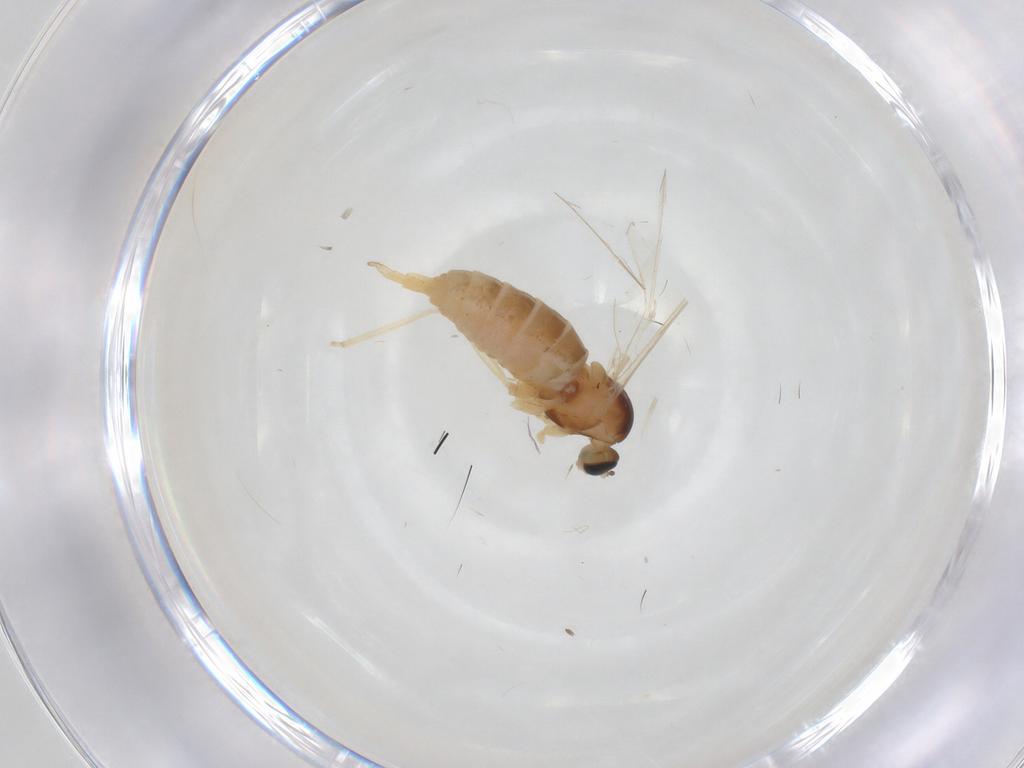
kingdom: Animalia
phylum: Arthropoda
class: Insecta
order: Diptera
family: Cecidomyiidae
